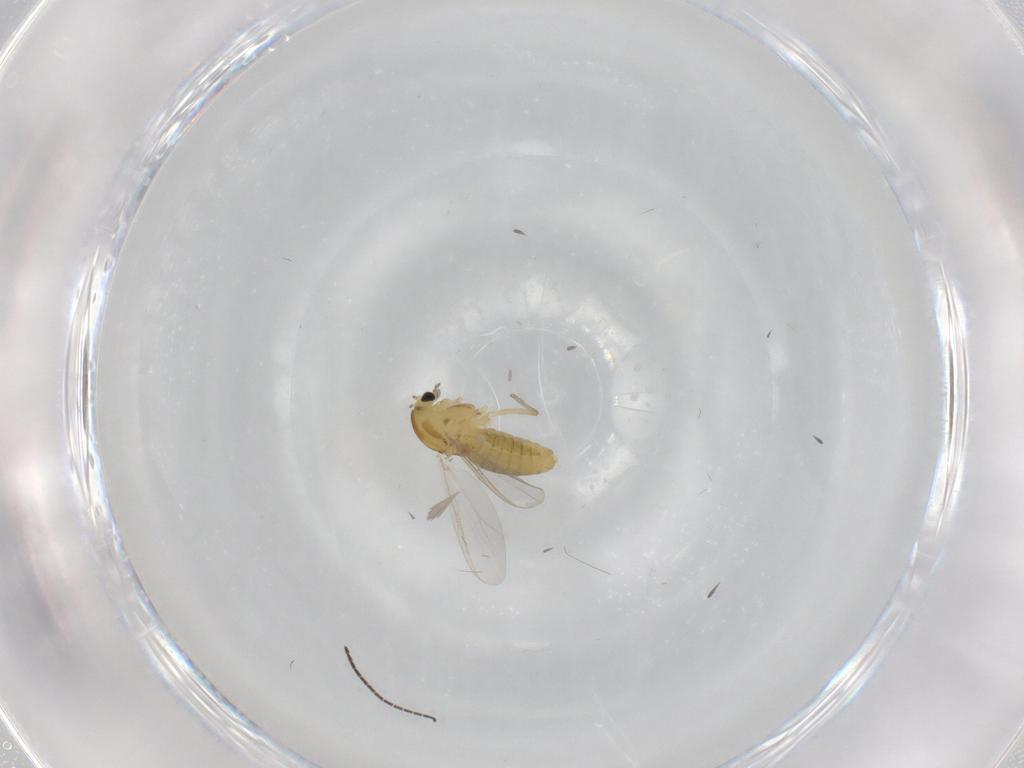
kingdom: Animalia
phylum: Arthropoda
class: Insecta
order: Diptera
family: Chironomidae
